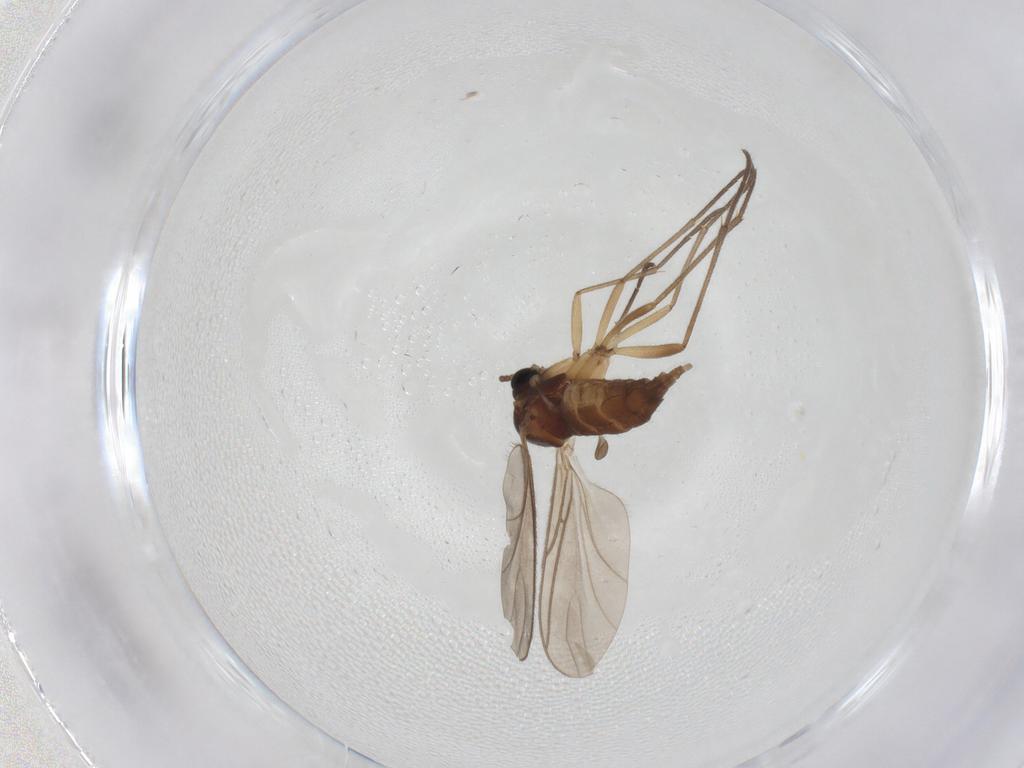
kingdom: Animalia
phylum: Arthropoda
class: Insecta
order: Diptera
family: Sciaridae
